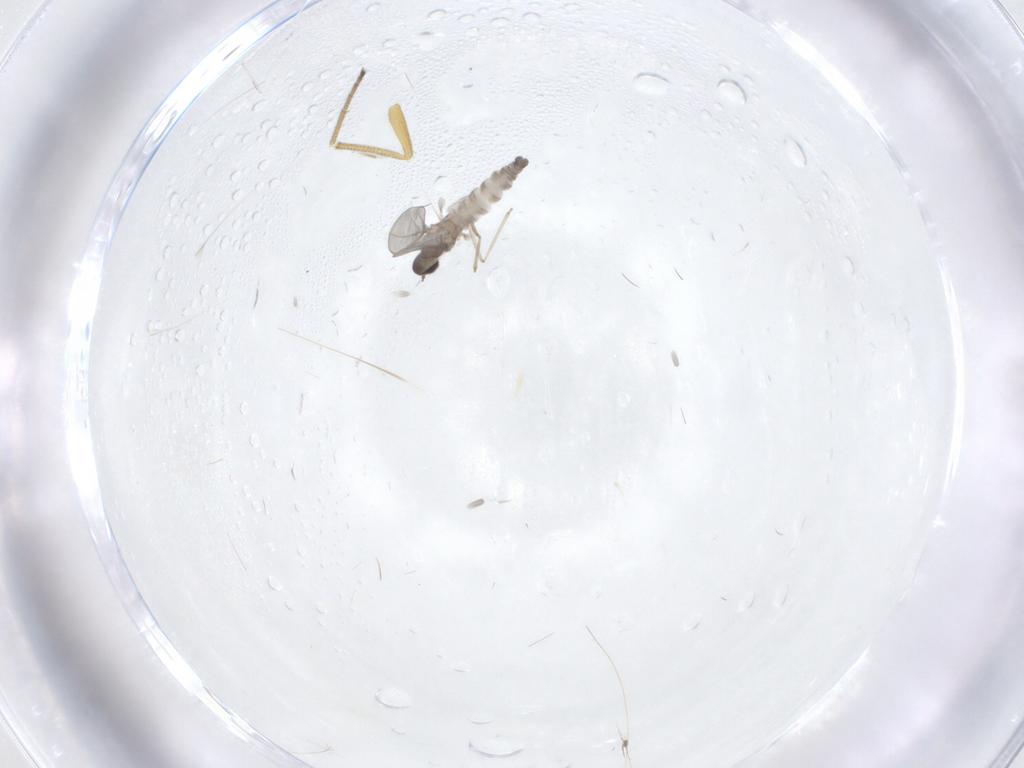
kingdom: Animalia
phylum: Arthropoda
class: Insecta
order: Diptera
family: Cecidomyiidae
